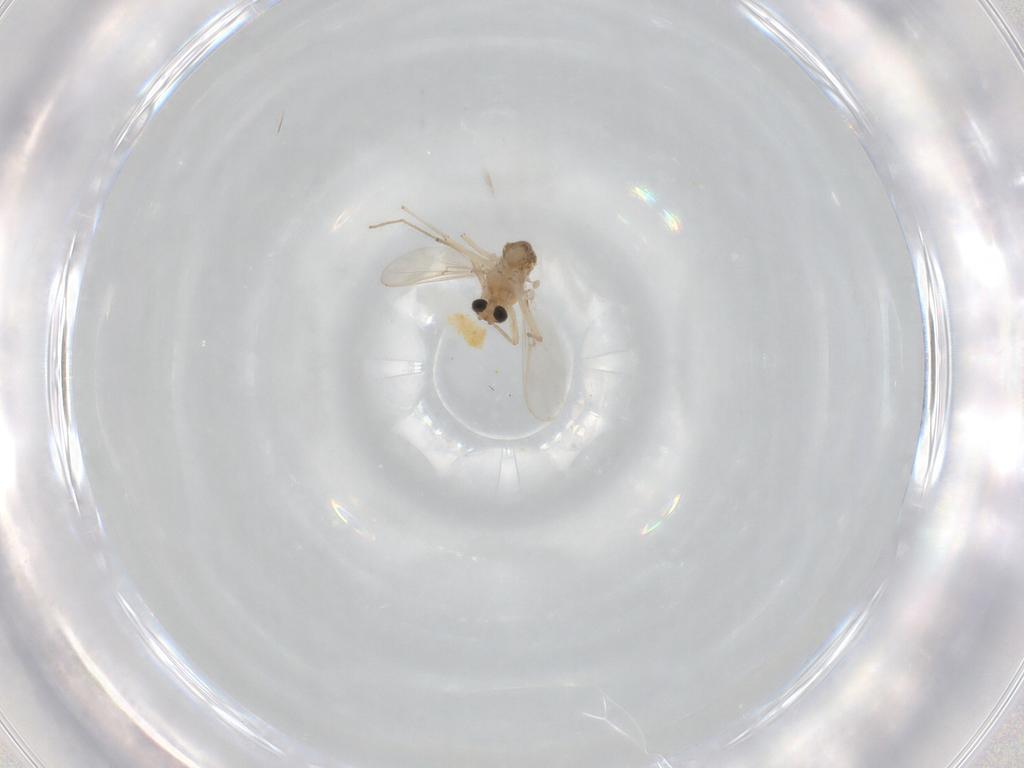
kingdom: Animalia
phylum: Arthropoda
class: Insecta
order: Diptera
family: Chironomidae
